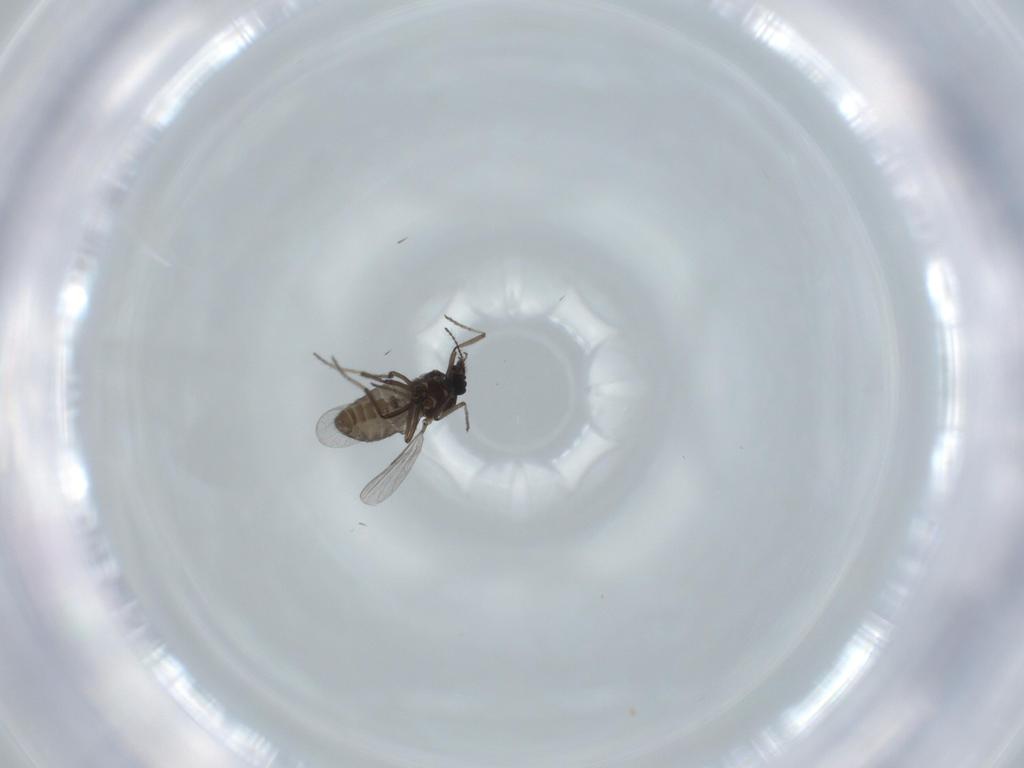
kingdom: Animalia
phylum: Arthropoda
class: Insecta
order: Diptera
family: Ceratopogonidae
